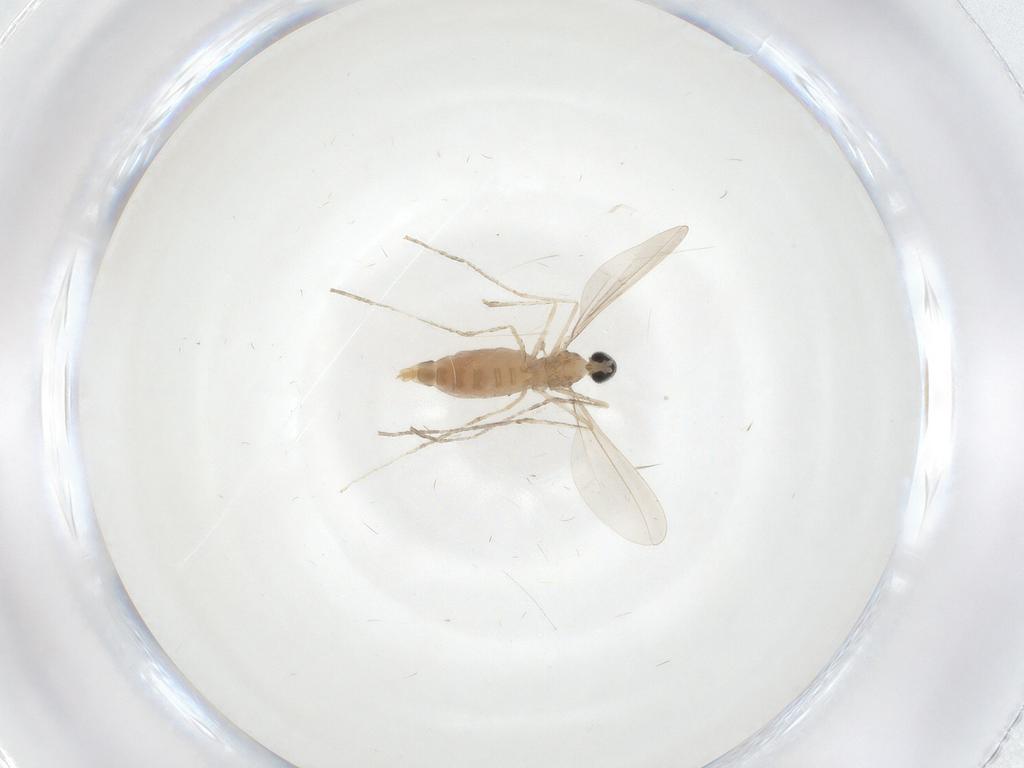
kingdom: Animalia
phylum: Arthropoda
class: Insecta
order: Diptera
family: Cecidomyiidae
